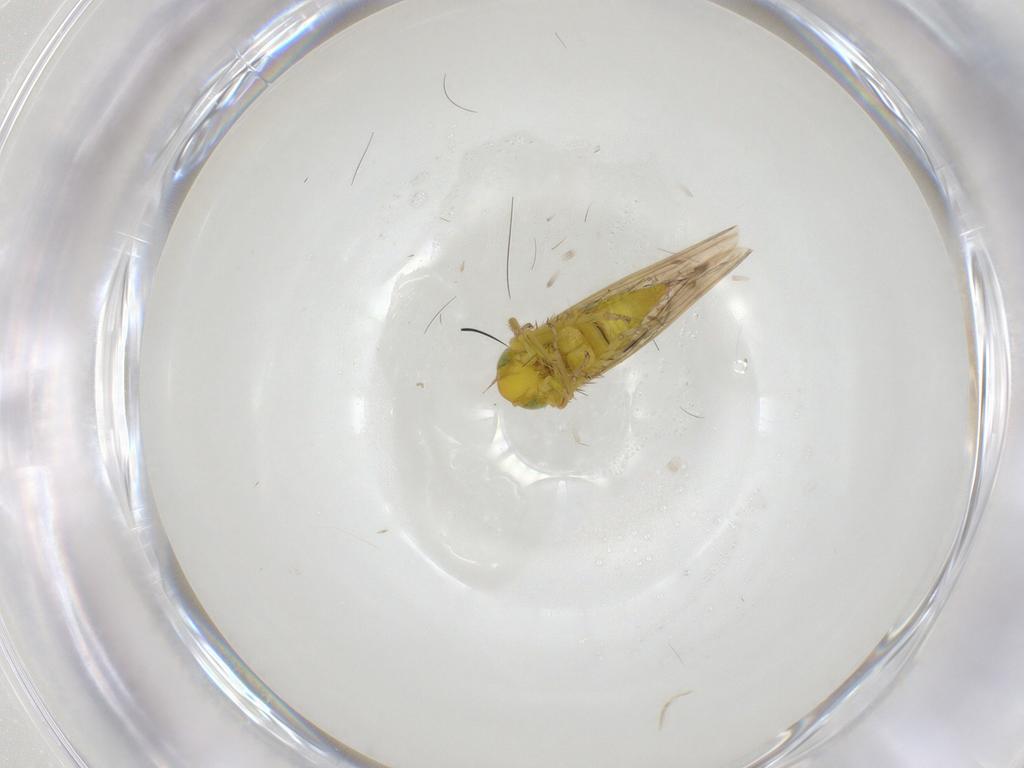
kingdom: Animalia
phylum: Arthropoda
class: Insecta
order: Hemiptera
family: Cicadellidae
